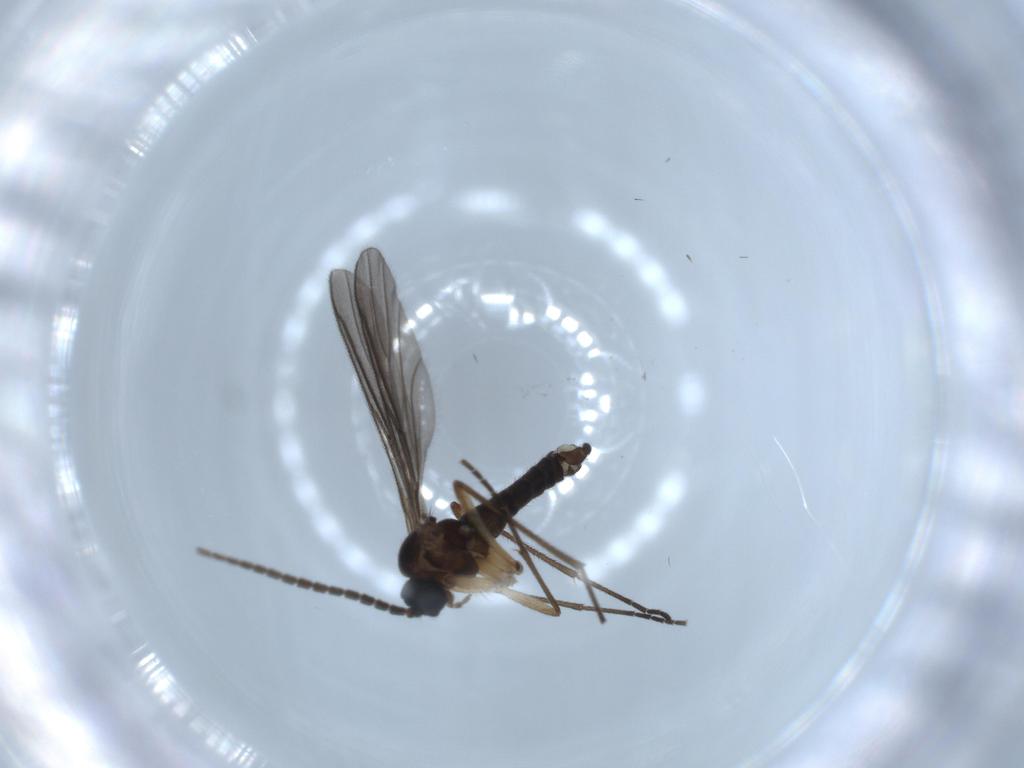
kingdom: Animalia
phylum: Arthropoda
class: Insecta
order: Diptera
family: Sciaridae
